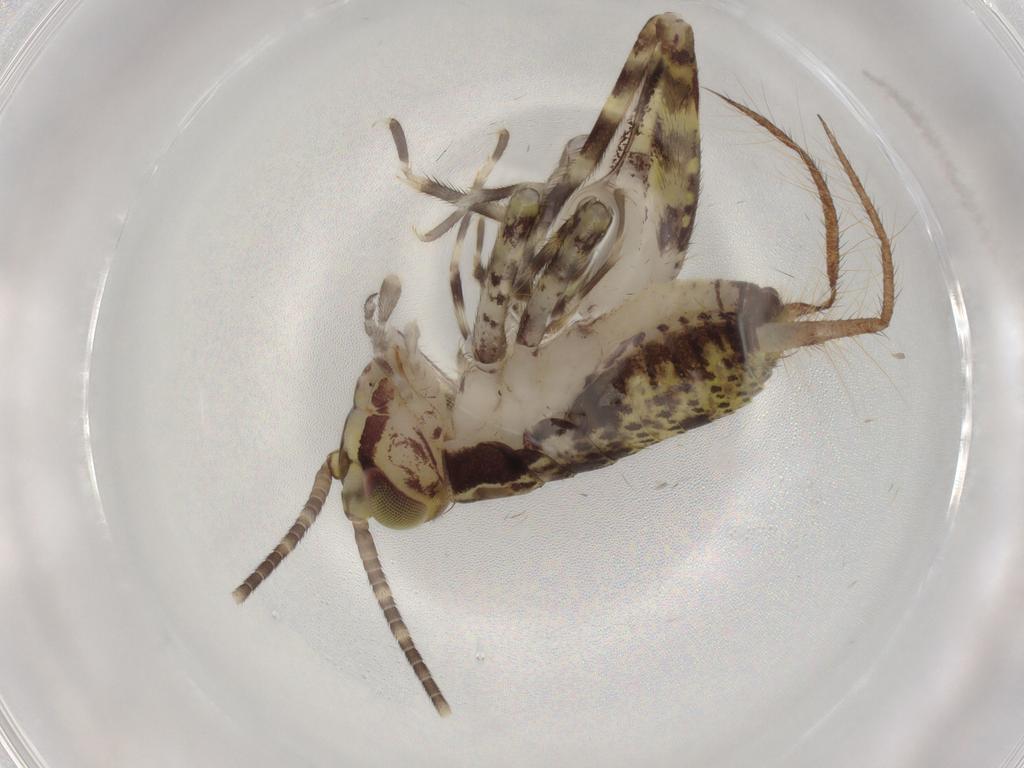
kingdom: Animalia
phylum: Arthropoda
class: Insecta
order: Orthoptera
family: Gryllidae
